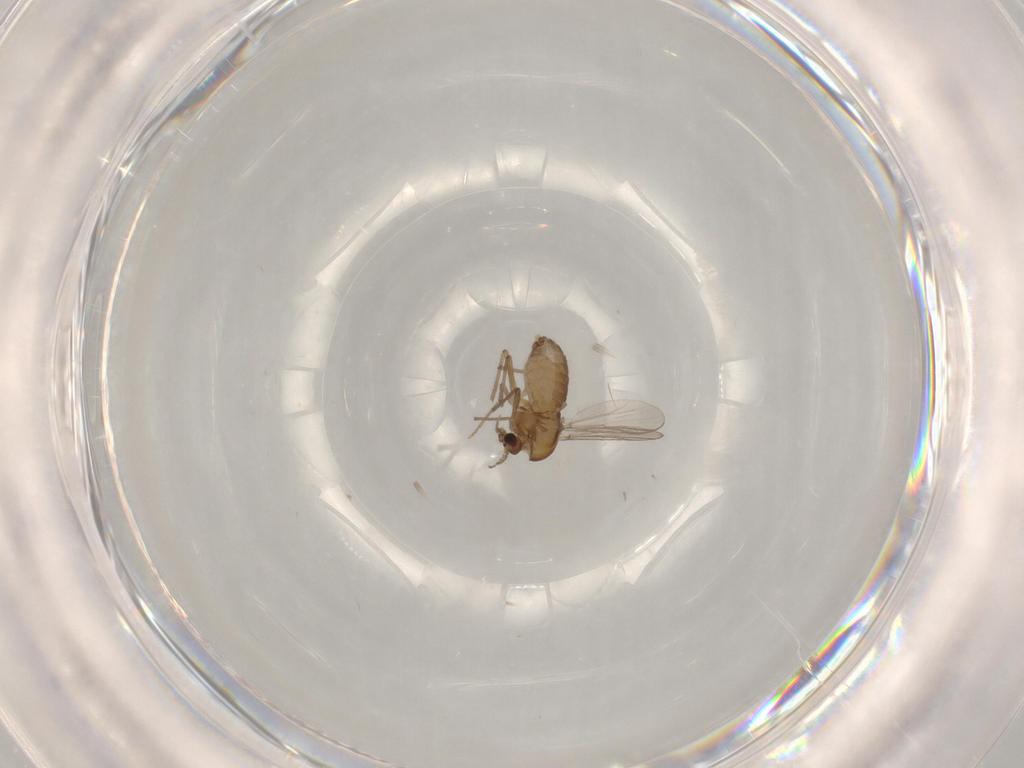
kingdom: Animalia
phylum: Arthropoda
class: Insecta
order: Diptera
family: Chironomidae
